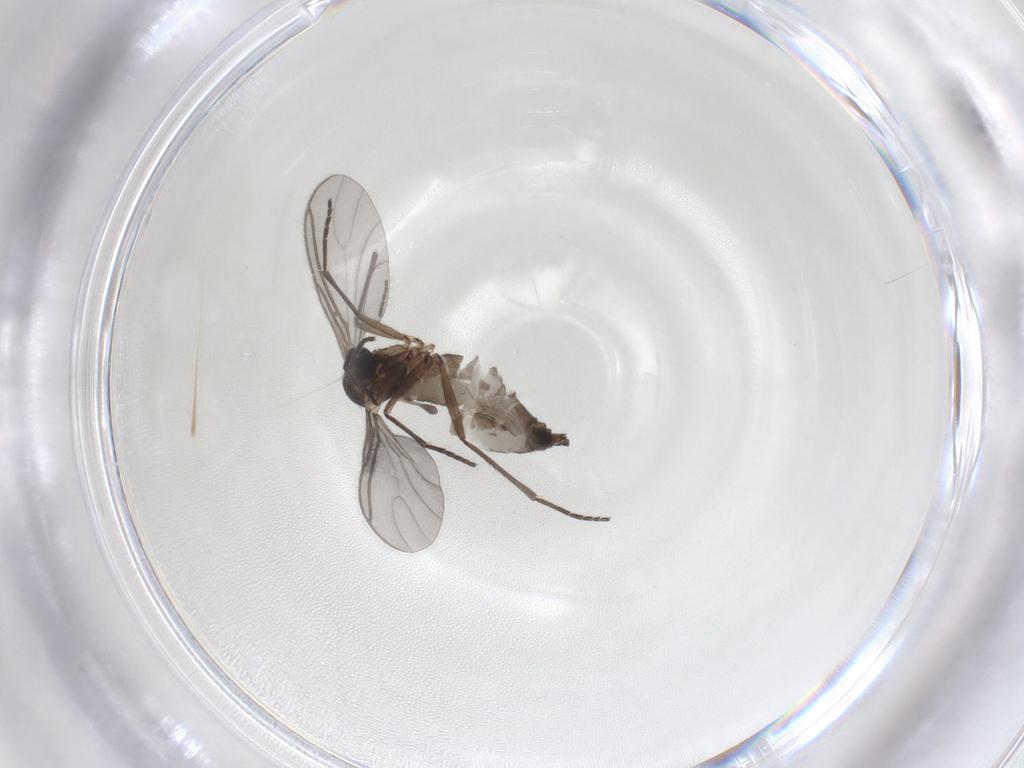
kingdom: Animalia
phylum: Arthropoda
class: Insecta
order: Diptera
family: Sciaridae
